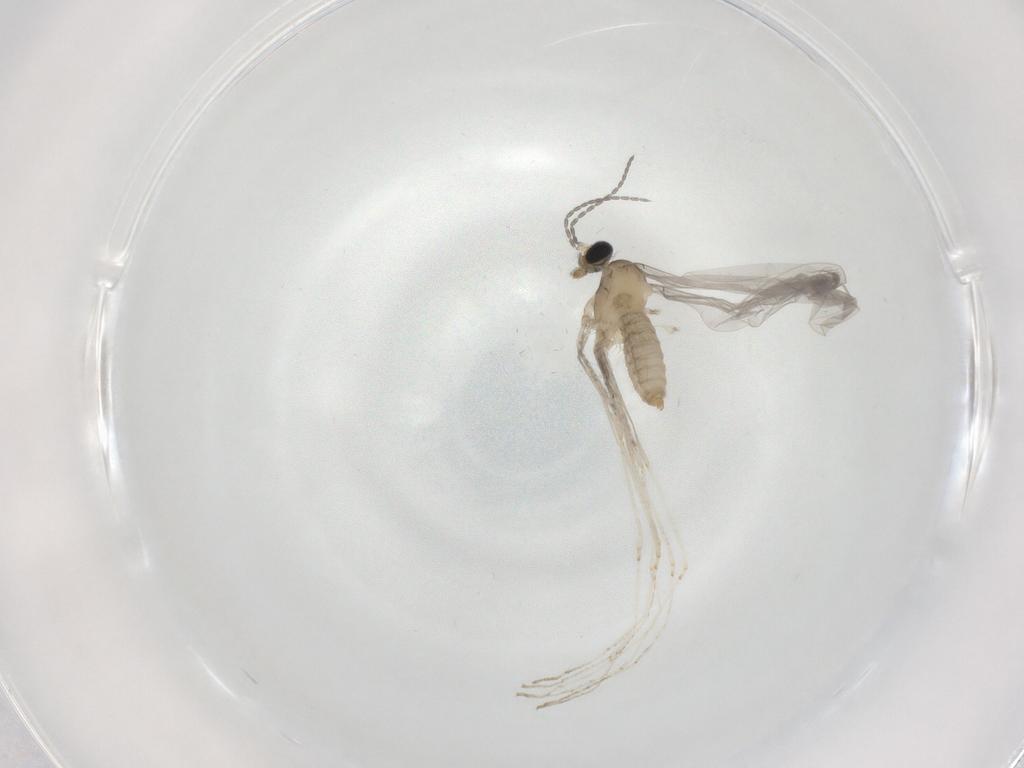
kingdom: Animalia
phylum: Arthropoda
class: Insecta
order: Diptera
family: Cecidomyiidae
